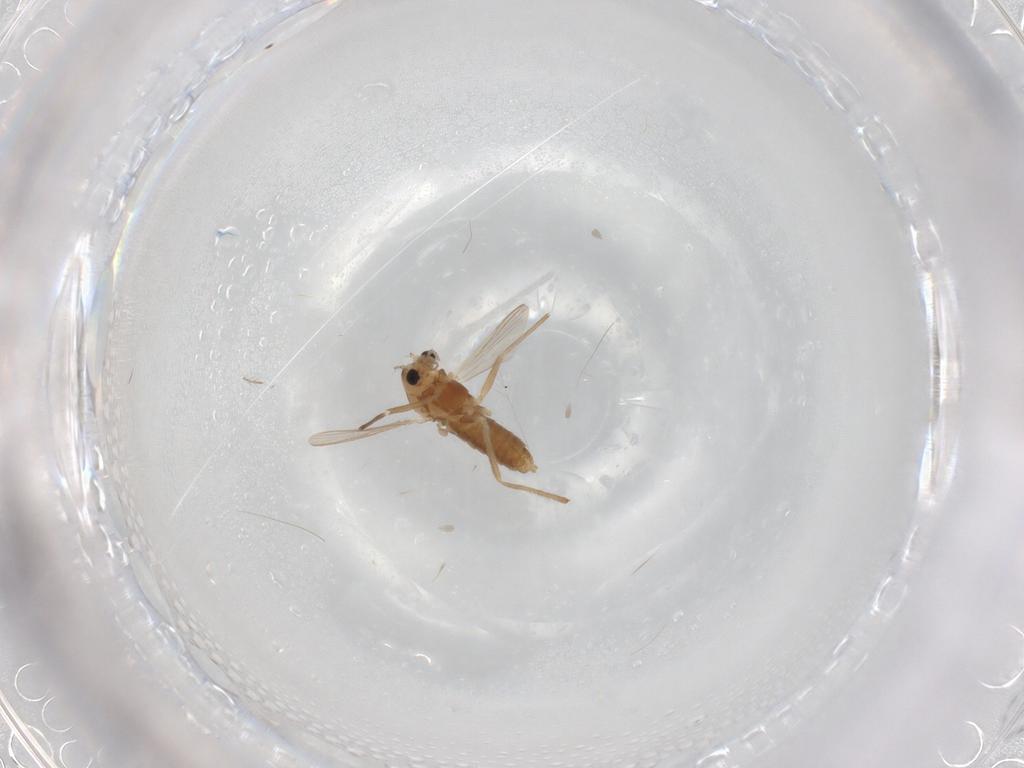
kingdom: Animalia
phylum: Arthropoda
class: Insecta
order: Diptera
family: Chironomidae
